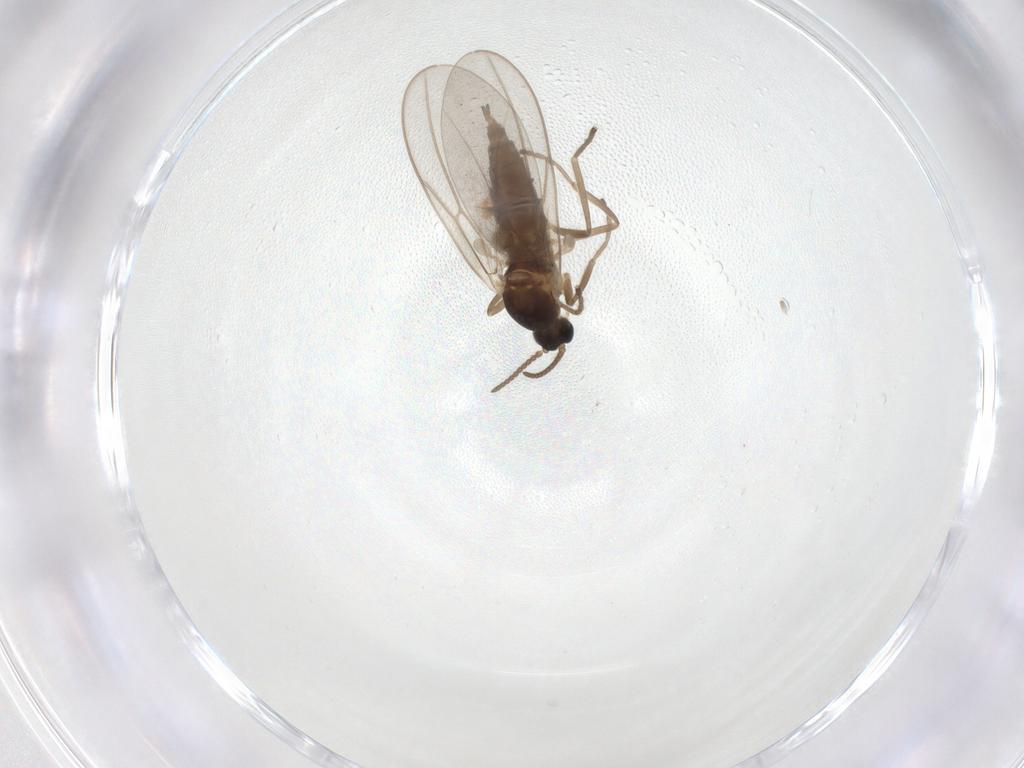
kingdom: Animalia
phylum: Arthropoda
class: Insecta
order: Diptera
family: Cecidomyiidae
